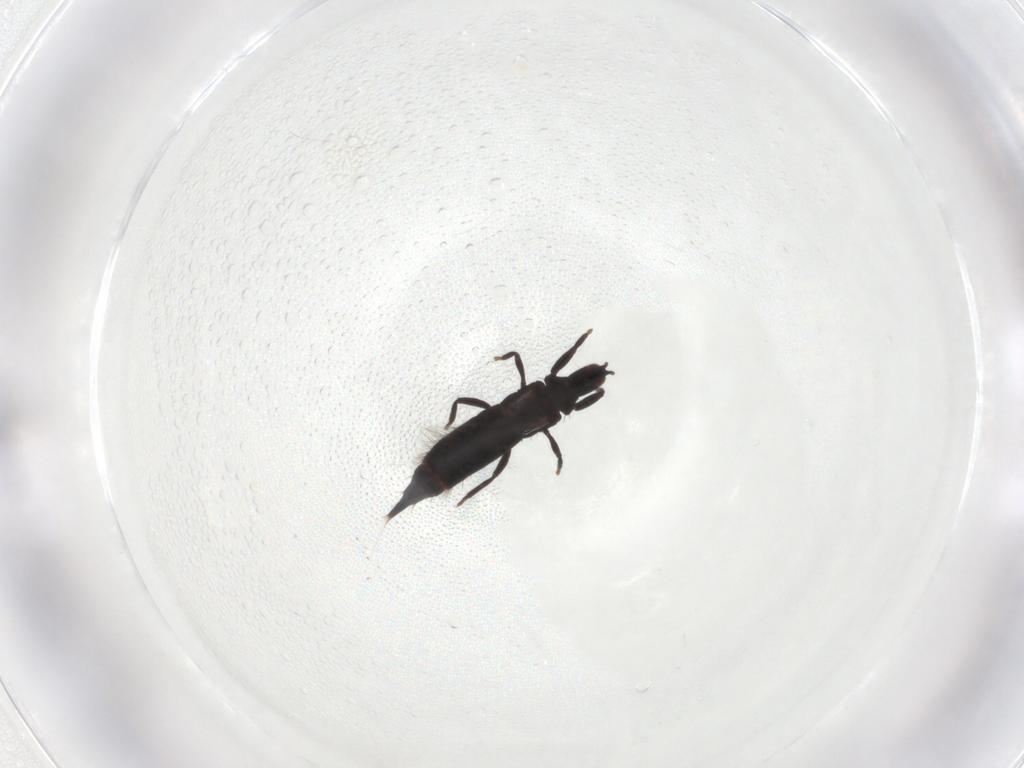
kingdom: Animalia
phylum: Arthropoda
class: Insecta
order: Thysanoptera
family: Phlaeothripidae
